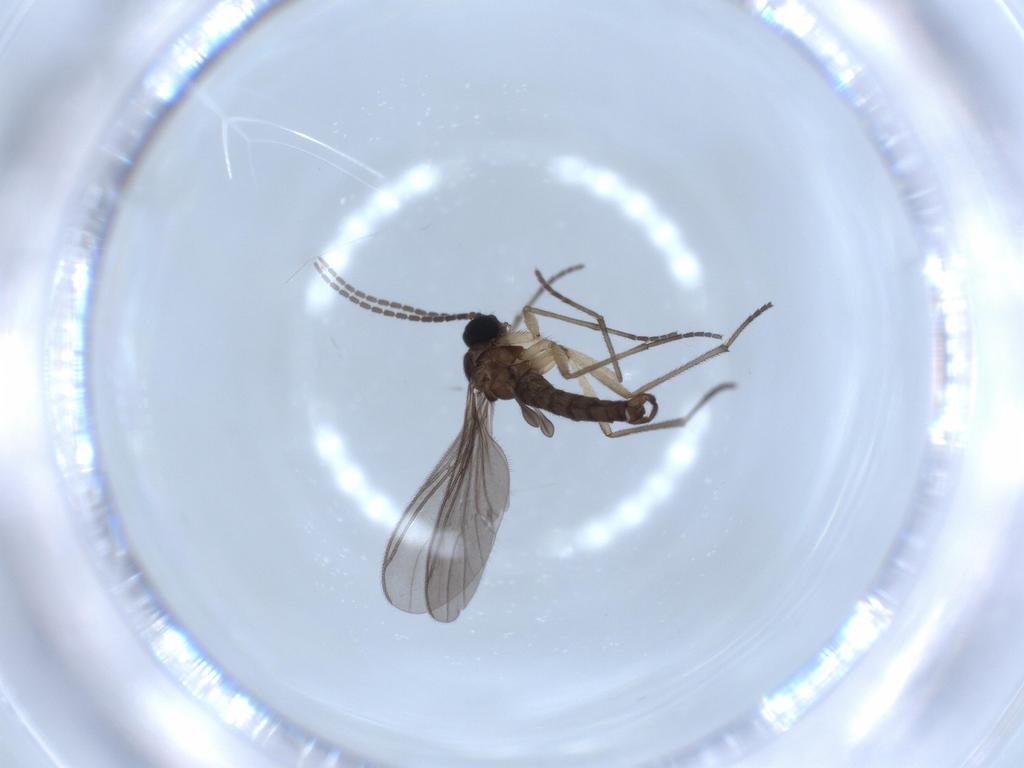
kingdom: Animalia
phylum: Arthropoda
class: Insecta
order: Diptera
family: Sciaridae
